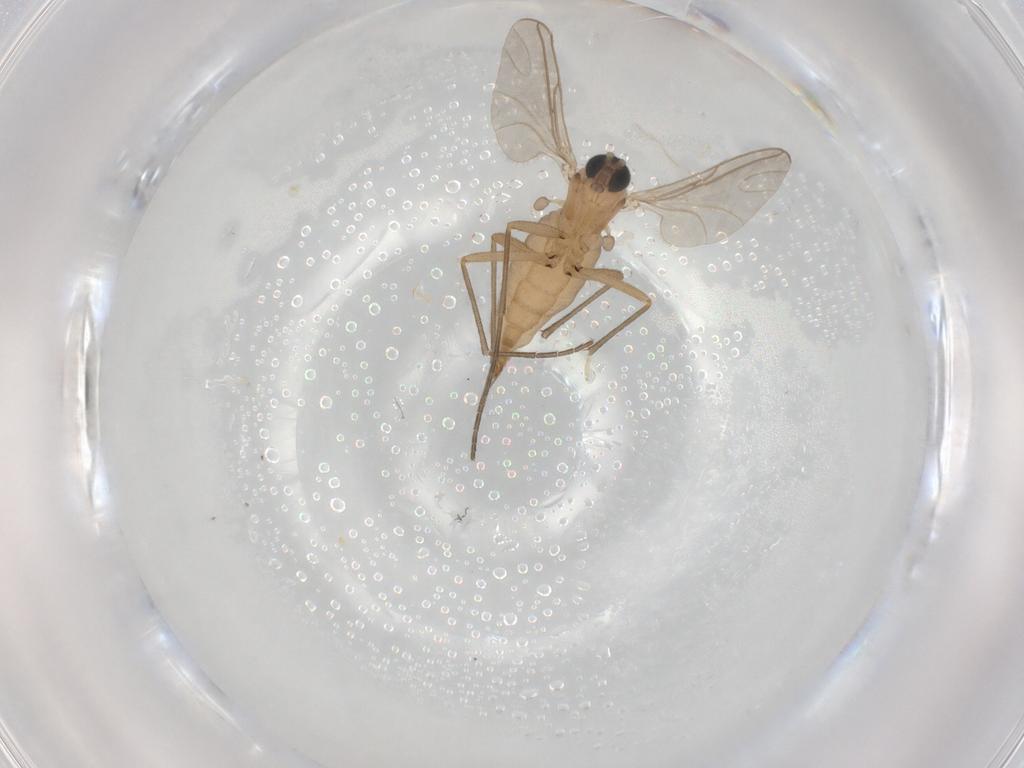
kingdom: Animalia
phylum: Arthropoda
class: Insecta
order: Diptera
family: Sciaridae
